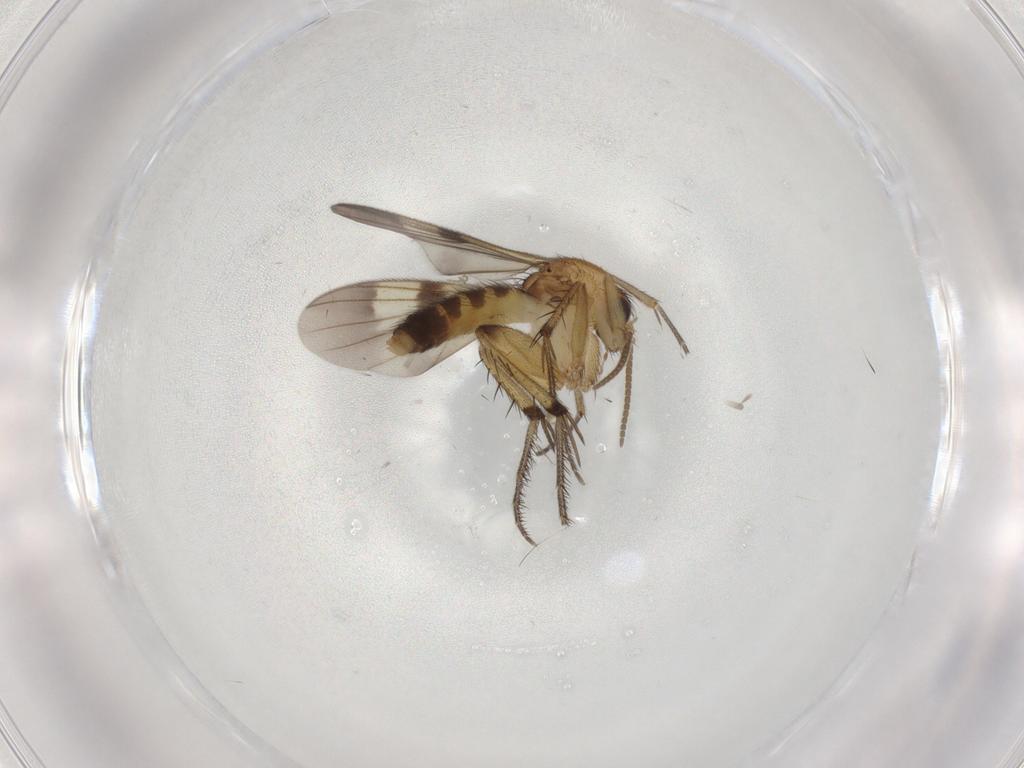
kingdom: Animalia
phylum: Arthropoda
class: Insecta
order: Diptera
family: Mycetophilidae
